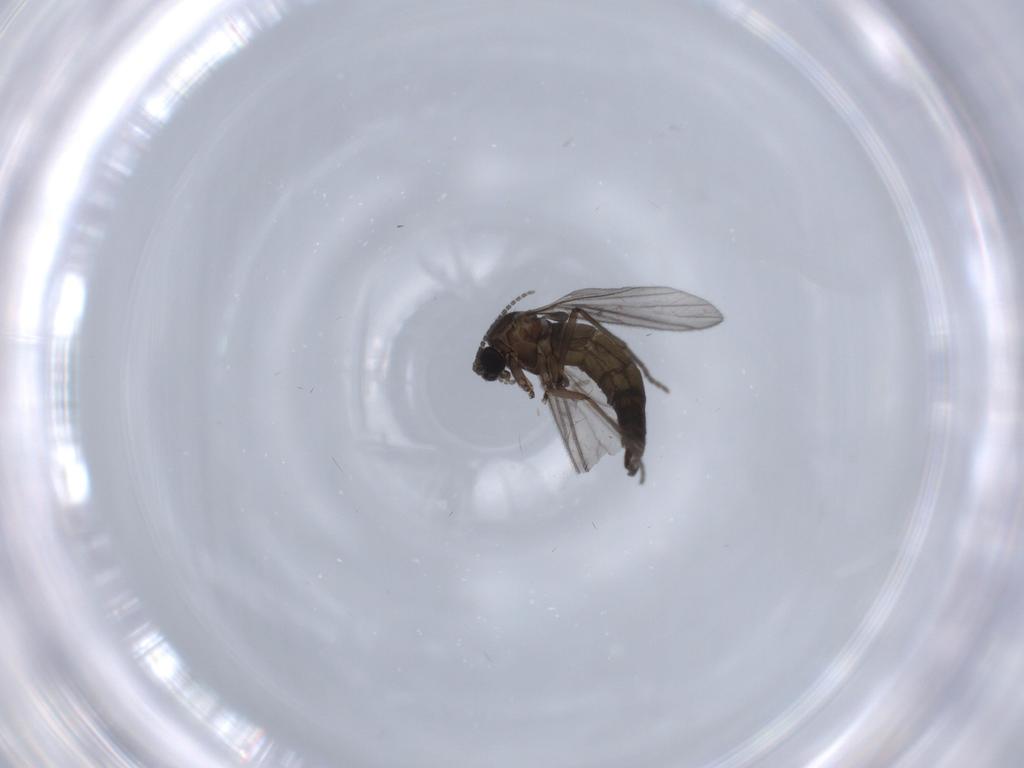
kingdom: Animalia
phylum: Arthropoda
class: Insecta
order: Diptera
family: Sciaridae
